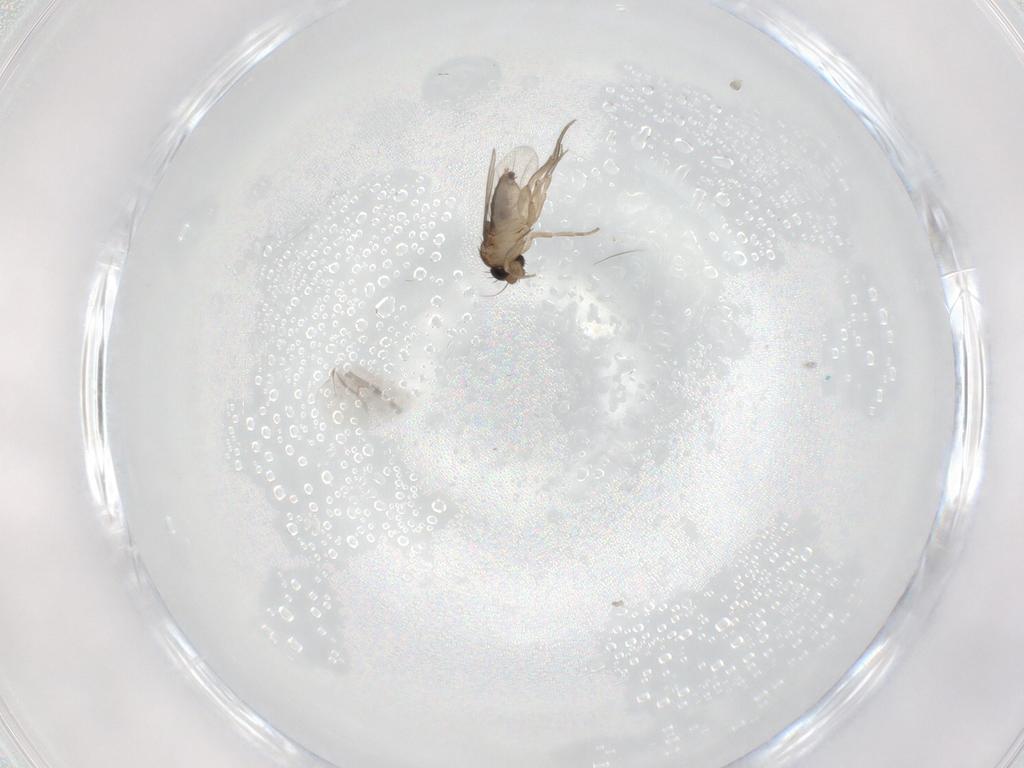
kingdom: Animalia
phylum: Arthropoda
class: Insecta
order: Diptera
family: Phoridae
